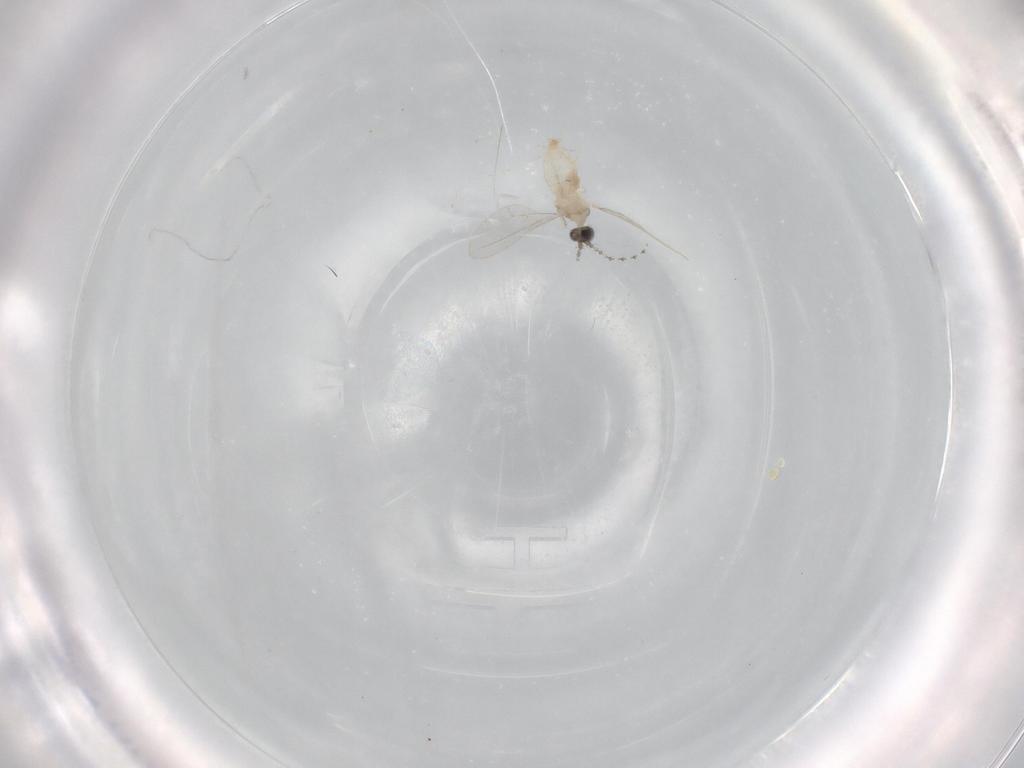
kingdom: Animalia
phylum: Arthropoda
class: Insecta
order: Diptera
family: Cecidomyiidae
